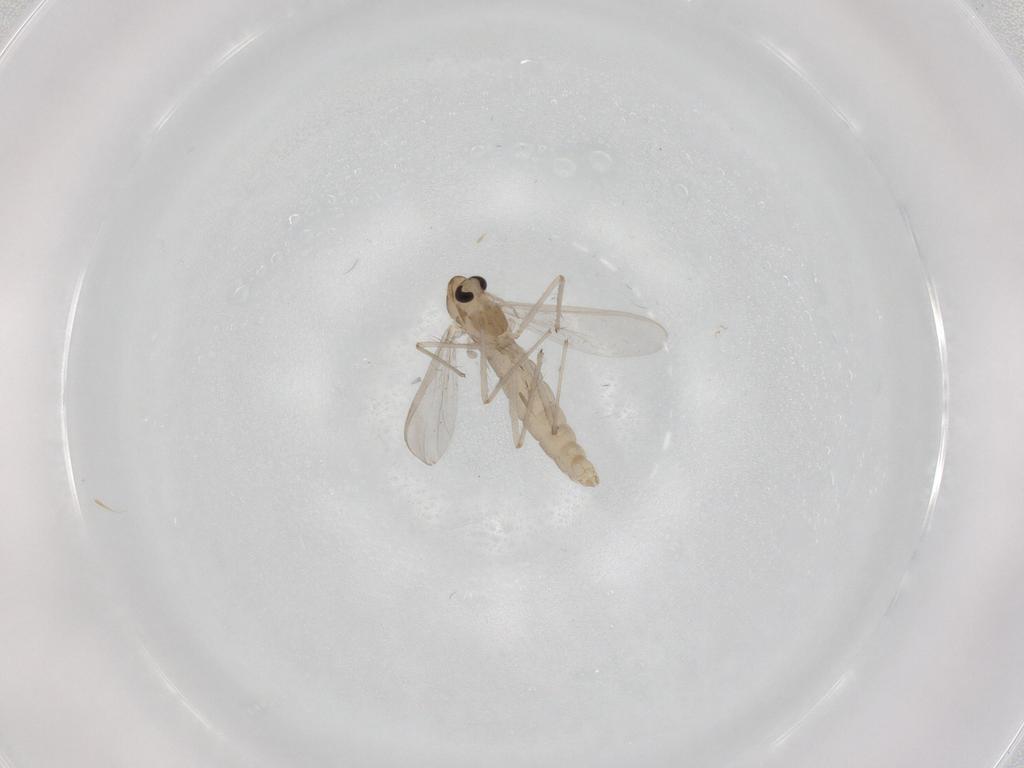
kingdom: Animalia
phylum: Arthropoda
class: Insecta
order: Diptera
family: Chironomidae
